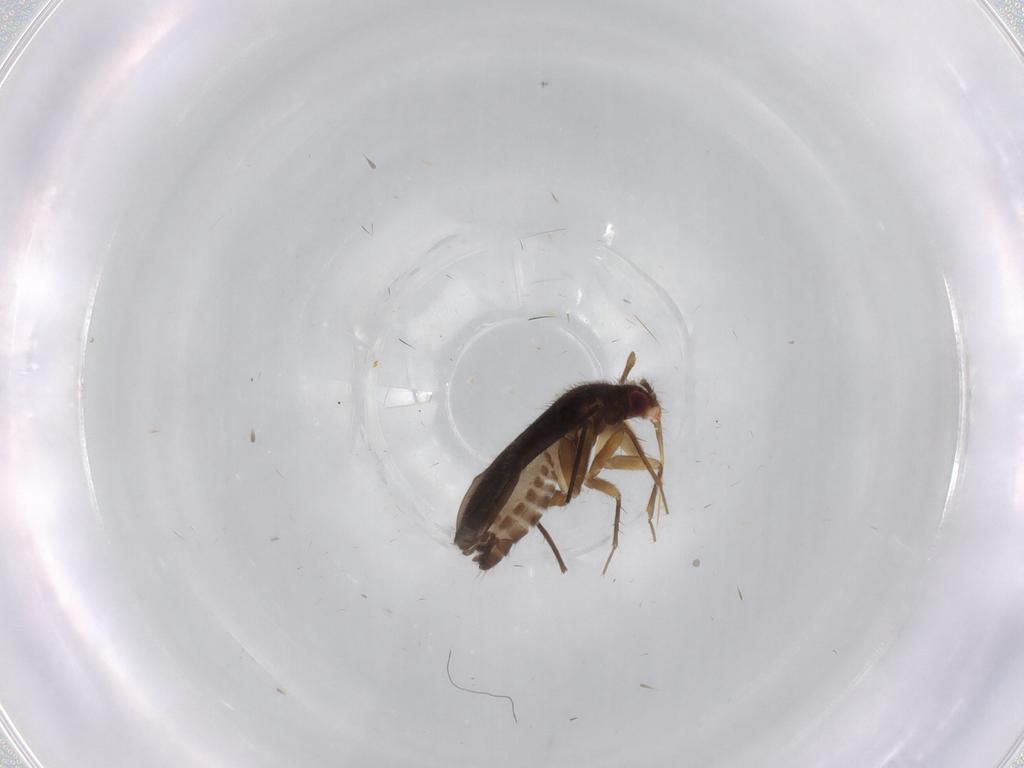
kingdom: Animalia
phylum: Arthropoda
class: Insecta
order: Hemiptera
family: Ceratocombidae
